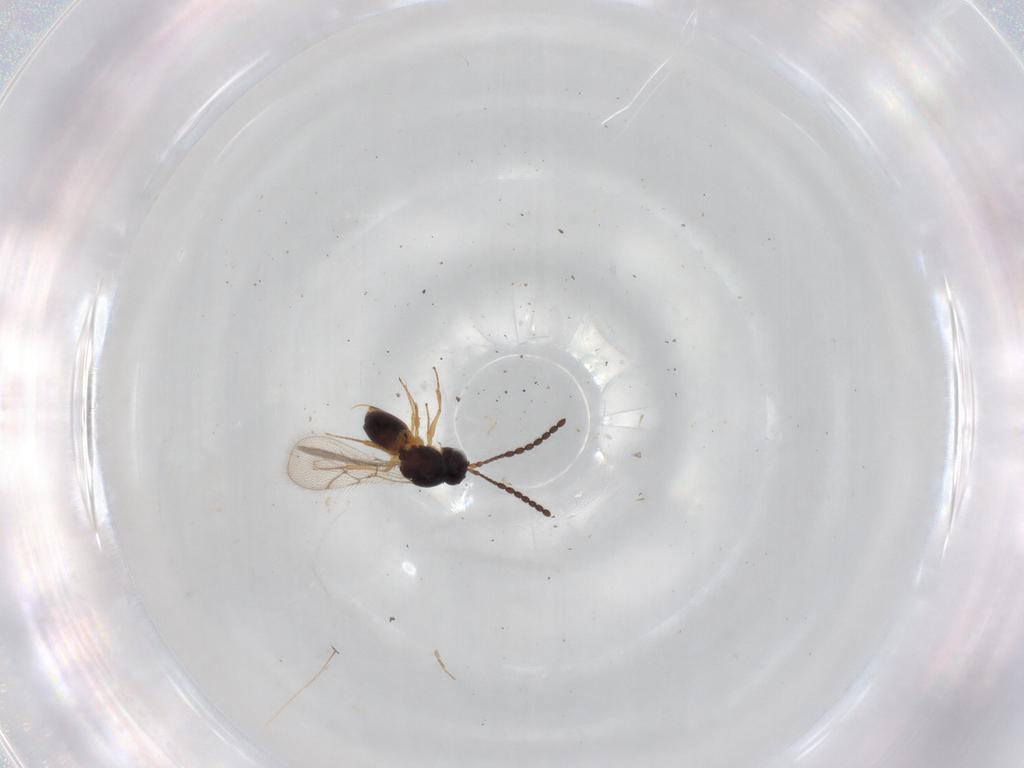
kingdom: Animalia
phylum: Arthropoda
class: Insecta
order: Hymenoptera
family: Figitidae
